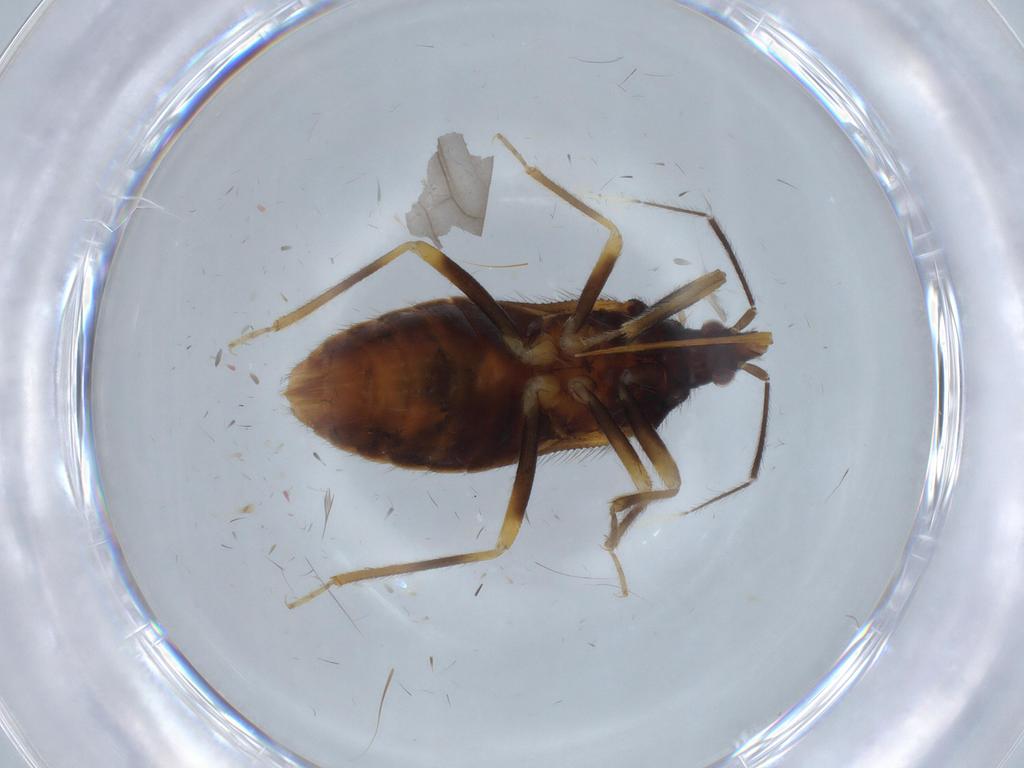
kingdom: Animalia
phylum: Arthropoda
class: Insecta
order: Hemiptera
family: Anthocoridae
